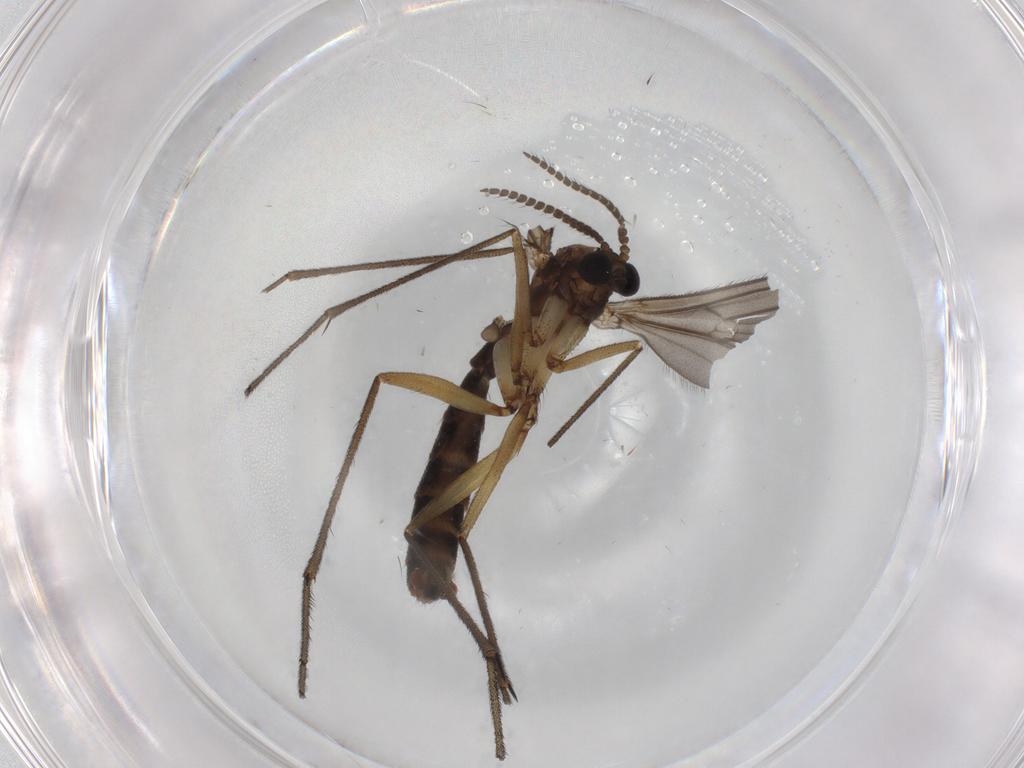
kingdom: Animalia
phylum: Arthropoda
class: Insecta
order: Diptera
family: Ditomyiidae
